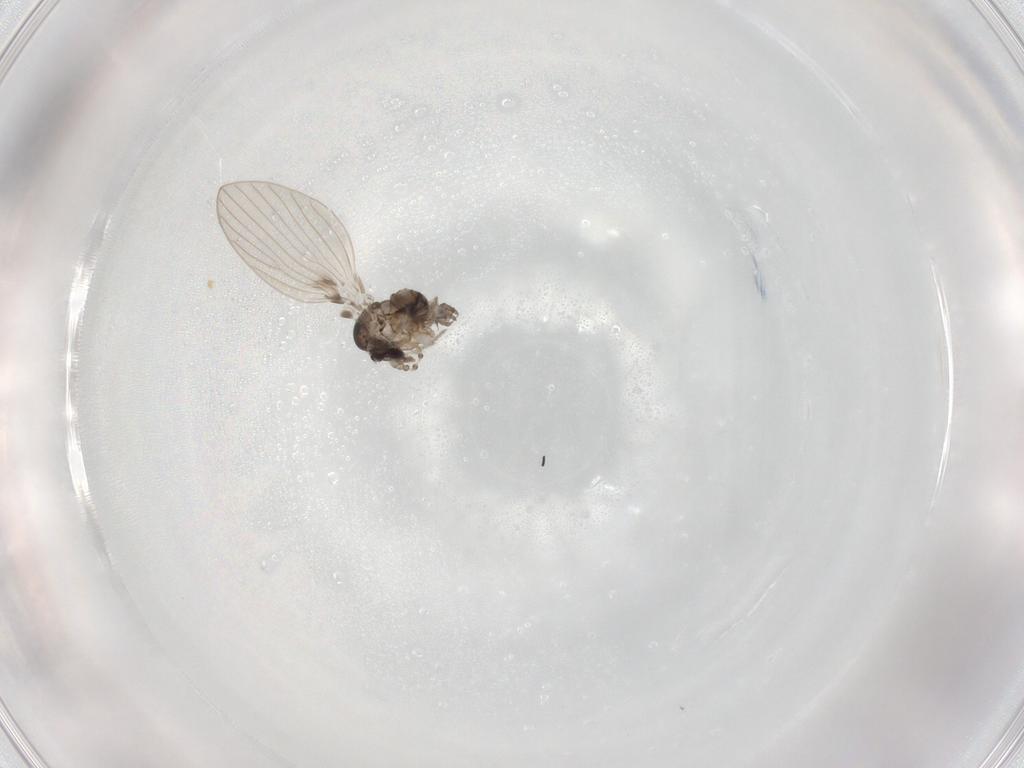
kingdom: Animalia
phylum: Arthropoda
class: Insecta
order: Diptera
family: Psychodidae
